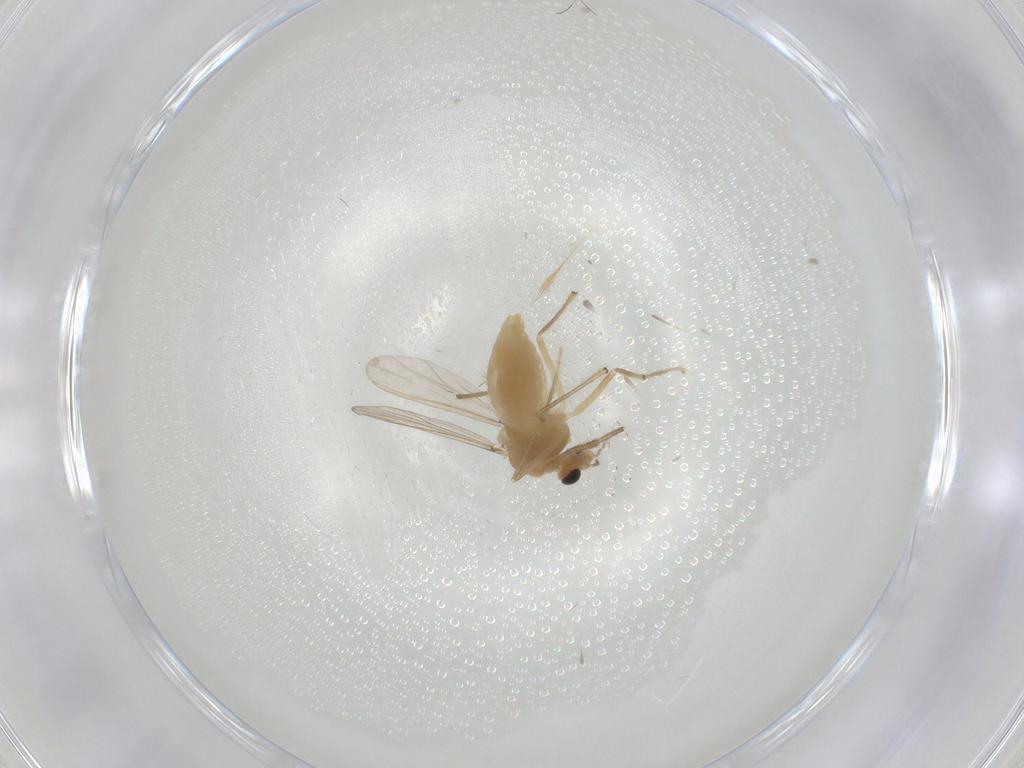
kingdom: Animalia
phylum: Arthropoda
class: Insecta
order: Diptera
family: Chironomidae
